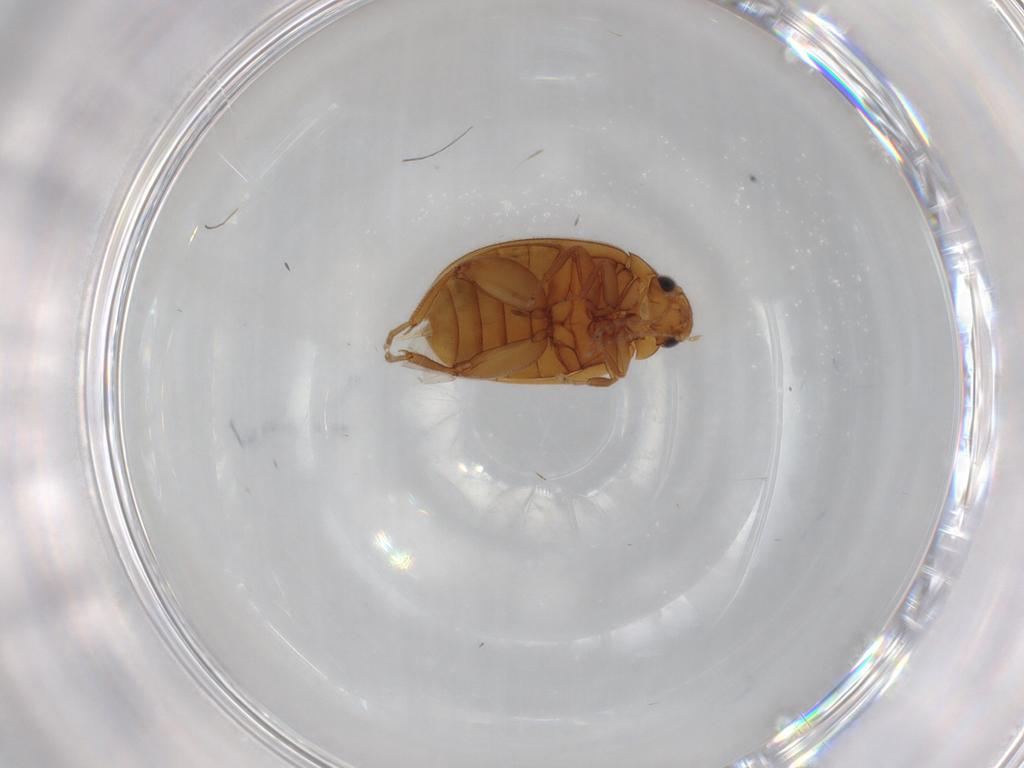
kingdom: Animalia
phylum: Arthropoda
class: Insecta
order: Coleoptera
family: Scirtidae
